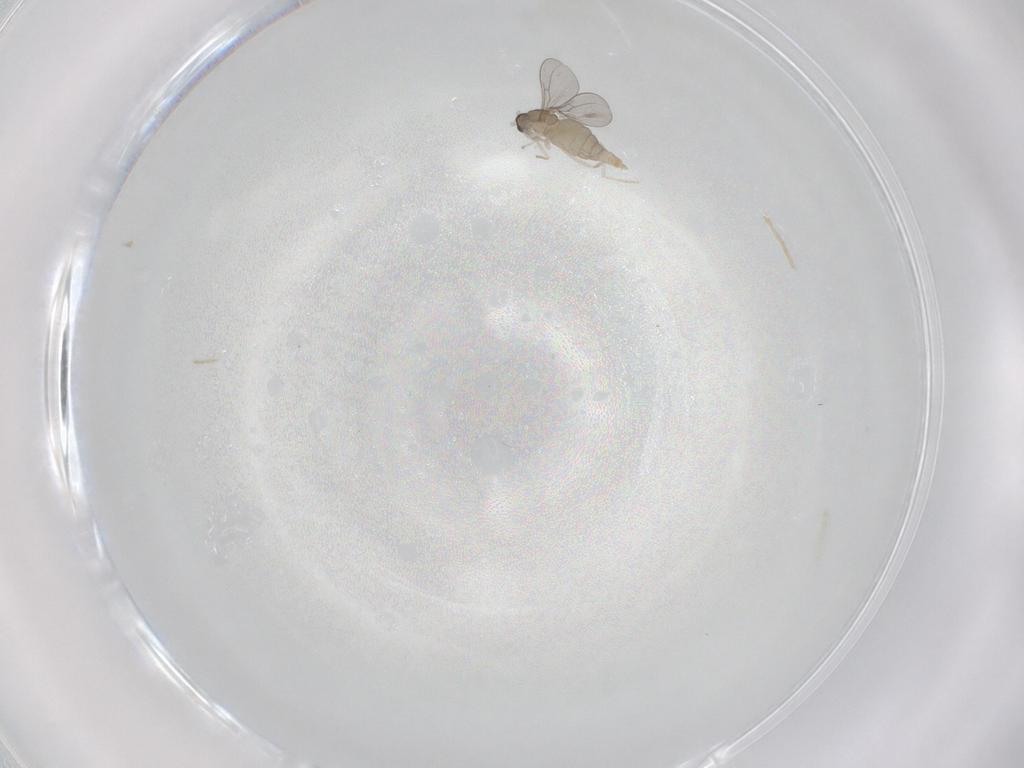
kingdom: Animalia
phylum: Arthropoda
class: Insecta
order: Diptera
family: Cecidomyiidae
